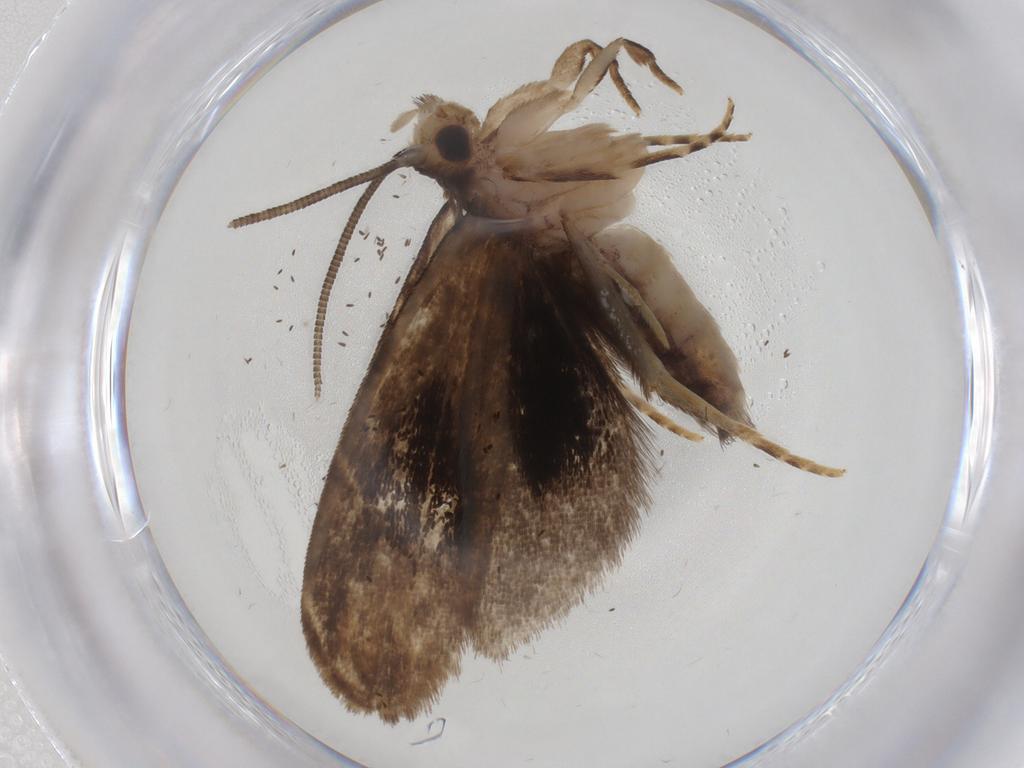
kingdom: Animalia
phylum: Arthropoda
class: Insecta
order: Lepidoptera
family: Dryadaulidae
